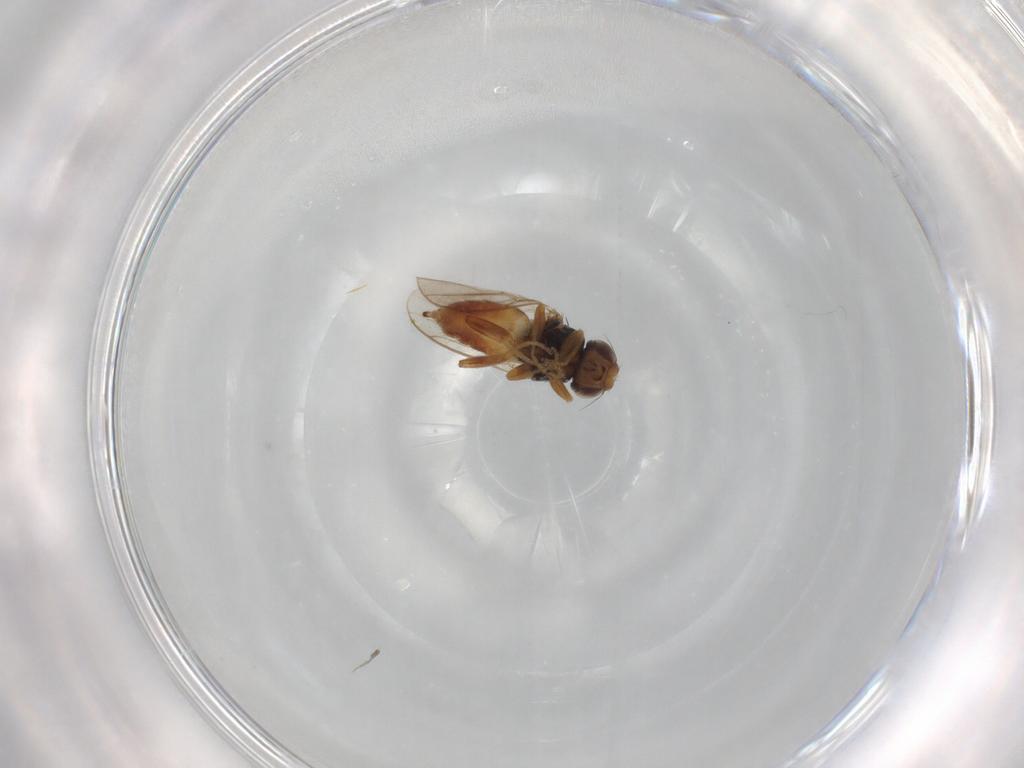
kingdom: Animalia
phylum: Arthropoda
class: Insecta
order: Diptera
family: Chloropidae
